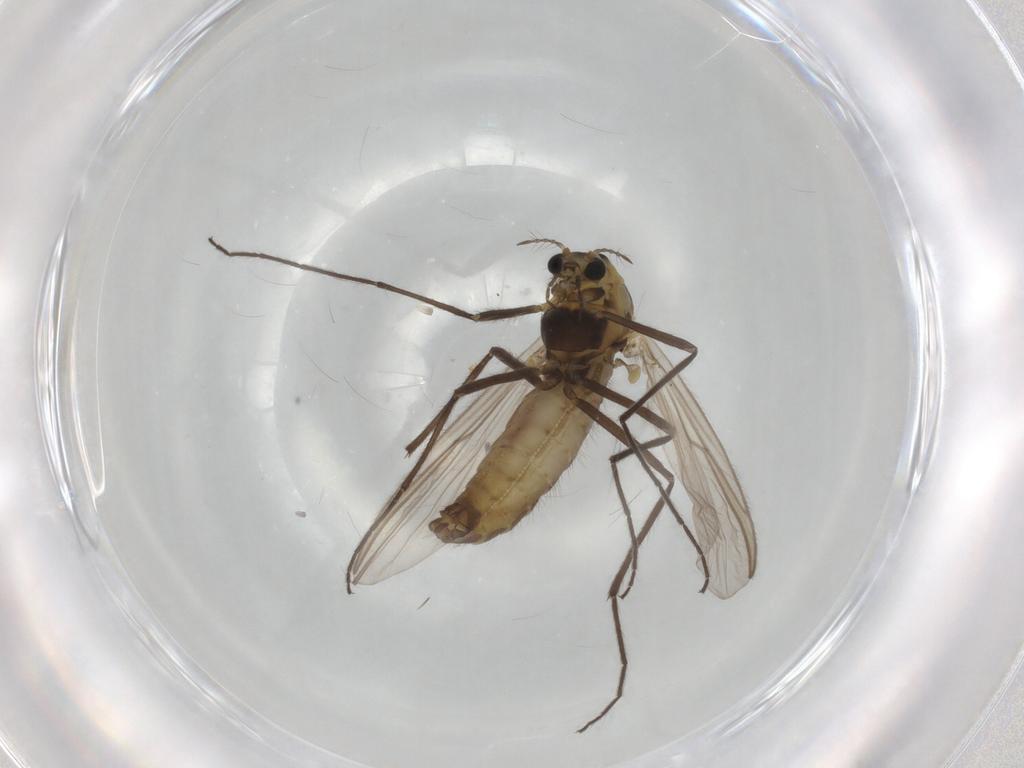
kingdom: Animalia
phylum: Arthropoda
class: Insecta
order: Diptera
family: Chironomidae
